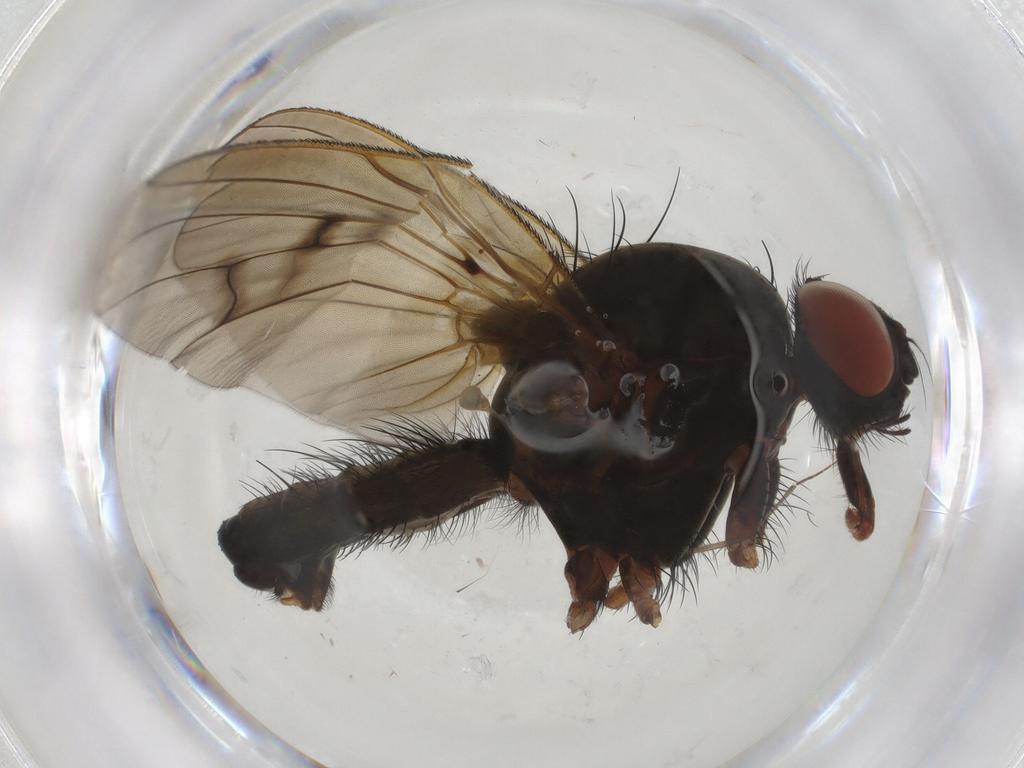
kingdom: Animalia
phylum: Arthropoda
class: Insecta
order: Diptera
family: Anthomyiidae
